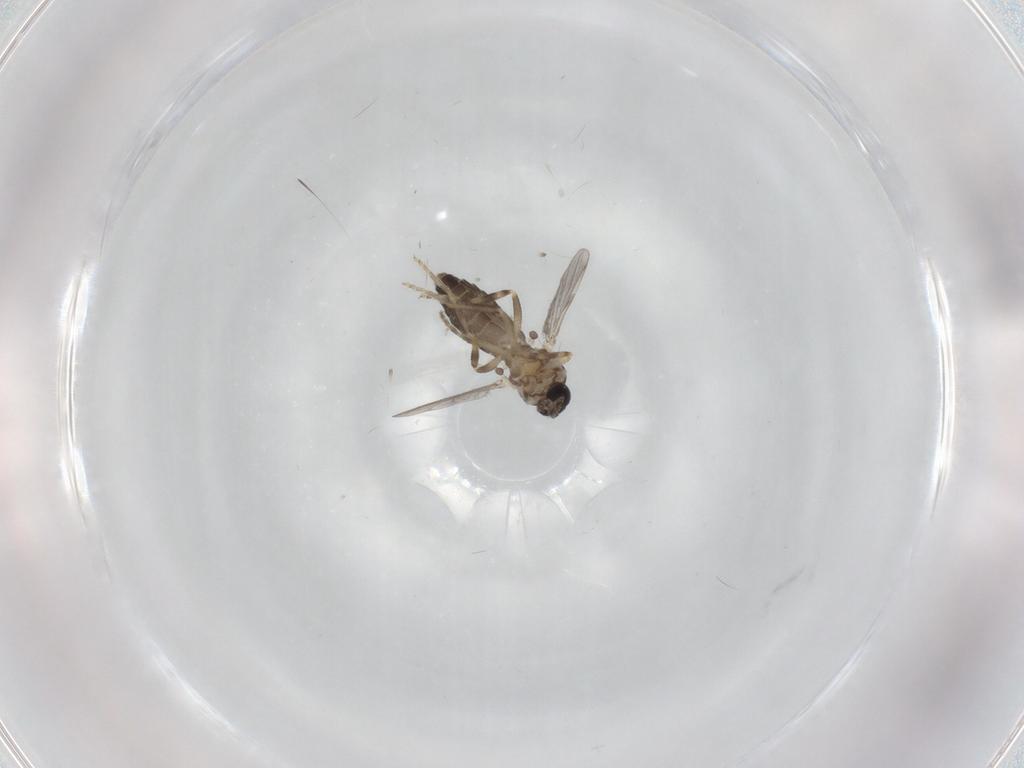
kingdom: Animalia
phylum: Arthropoda
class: Insecta
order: Diptera
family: Ceratopogonidae
